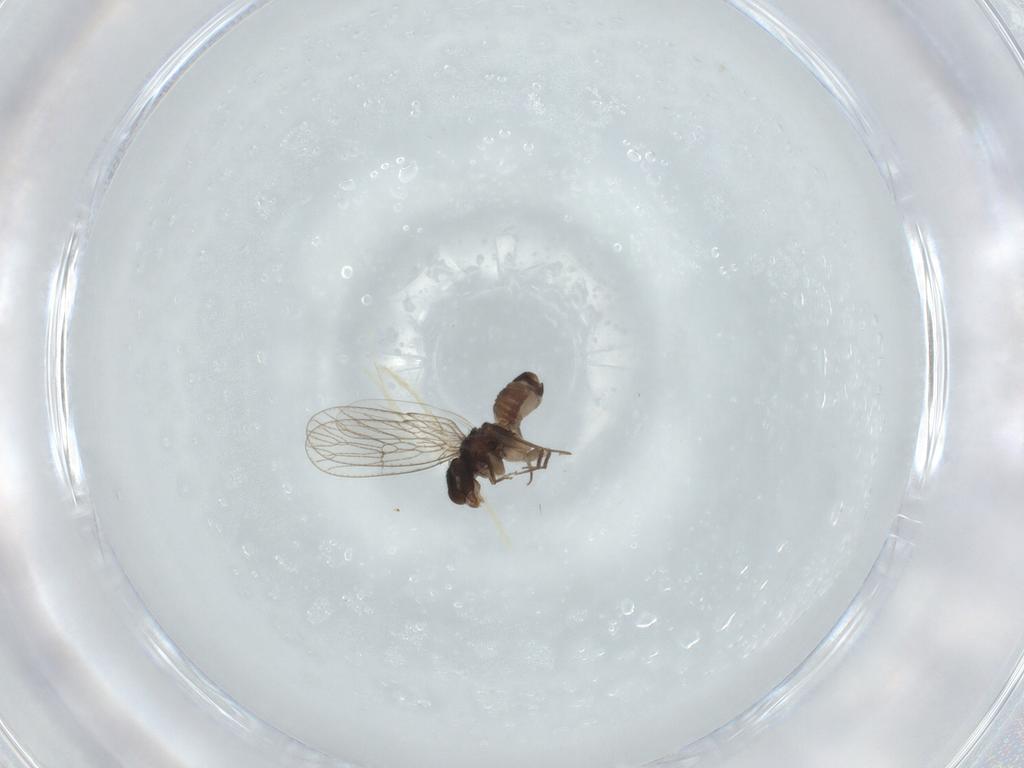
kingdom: Animalia
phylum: Arthropoda
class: Insecta
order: Psocodea
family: Psoquillidae
